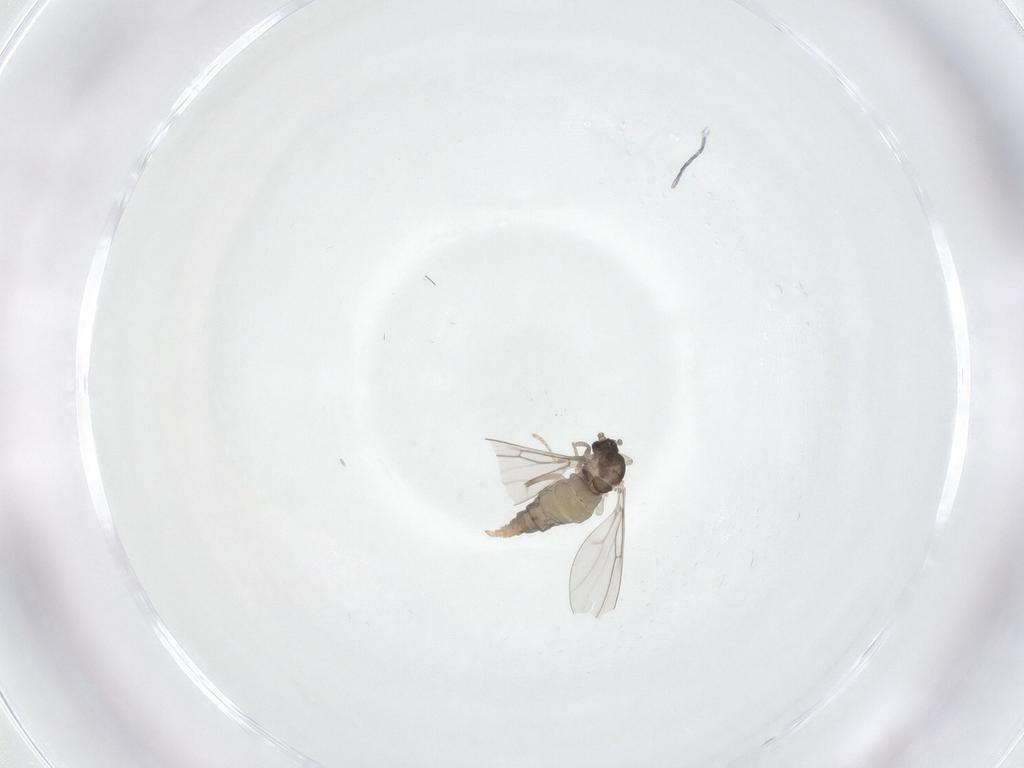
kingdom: Animalia
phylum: Arthropoda
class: Insecta
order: Diptera
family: Cecidomyiidae
